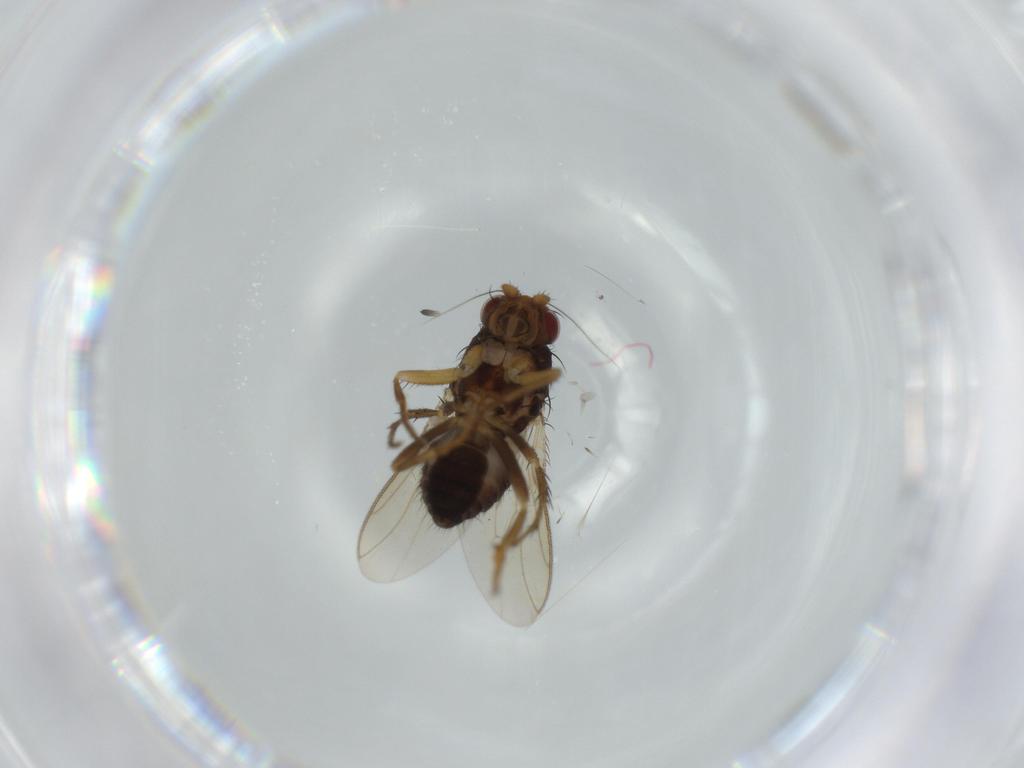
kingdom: Animalia
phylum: Arthropoda
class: Insecta
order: Diptera
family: Sphaeroceridae
